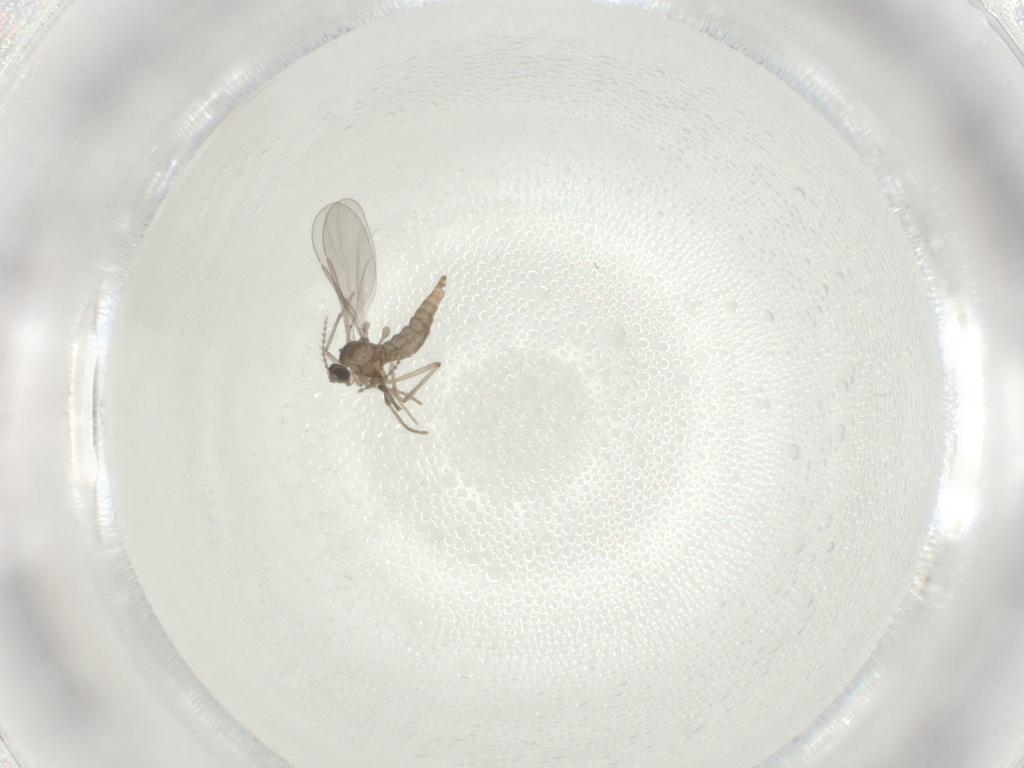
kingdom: Animalia
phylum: Arthropoda
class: Insecta
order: Diptera
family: Cecidomyiidae
